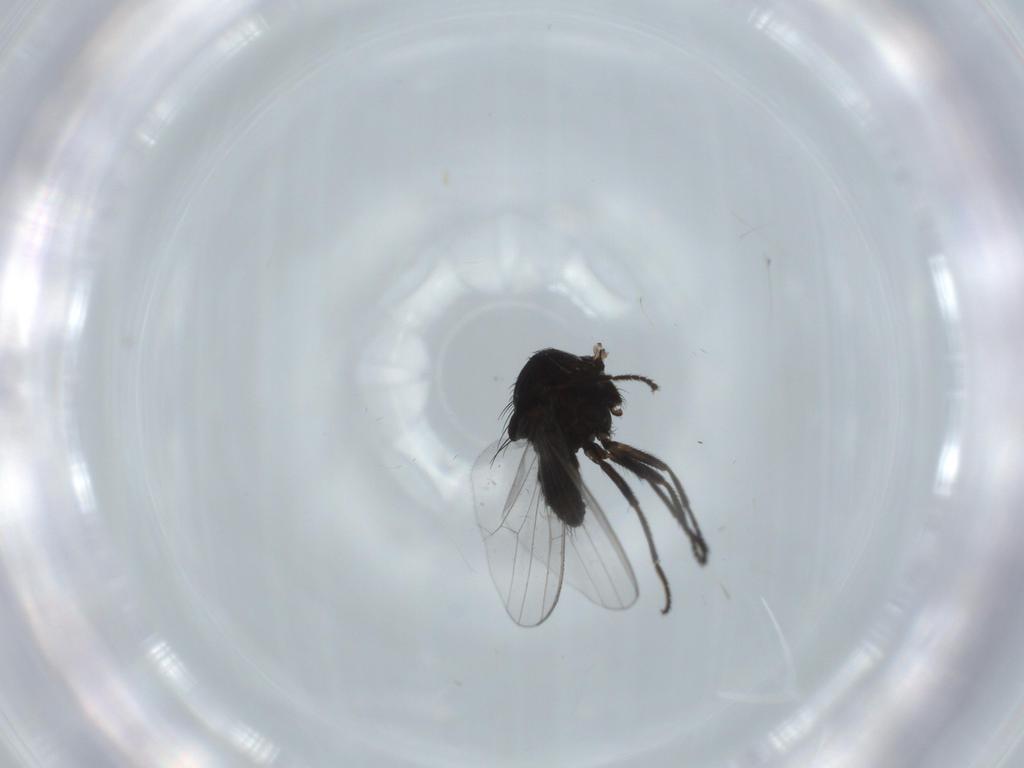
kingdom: Animalia
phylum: Arthropoda
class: Insecta
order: Diptera
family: Milichiidae
